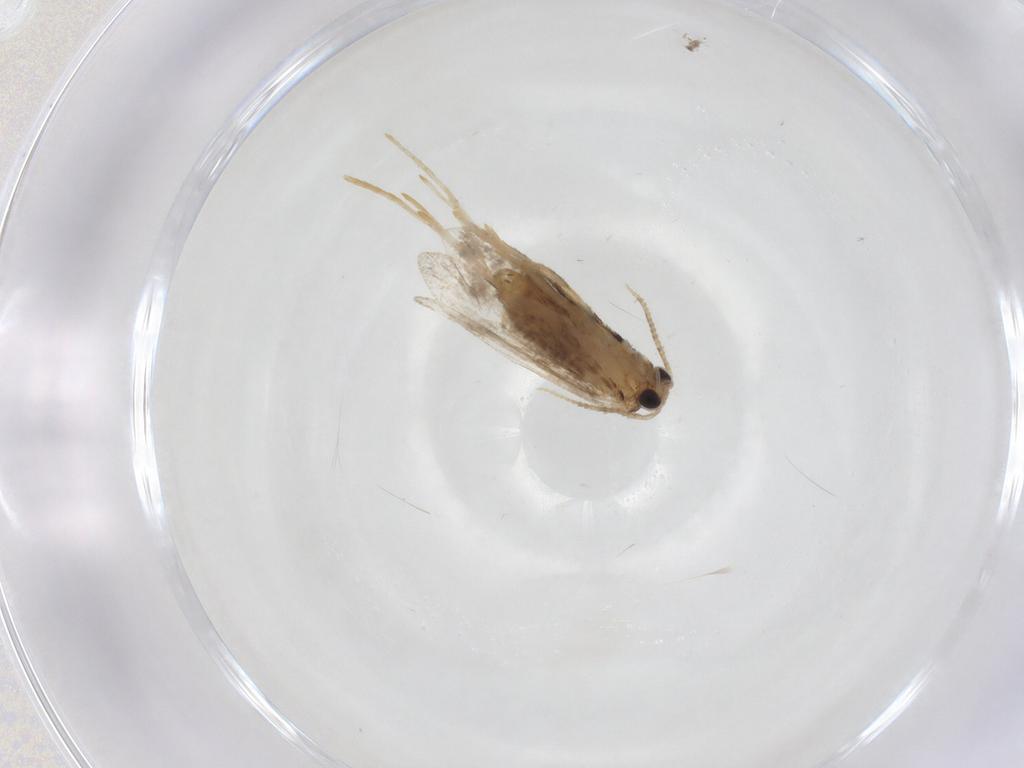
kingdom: Animalia
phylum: Arthropoda
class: Insecta
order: Lepidoptera
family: Psychidae
